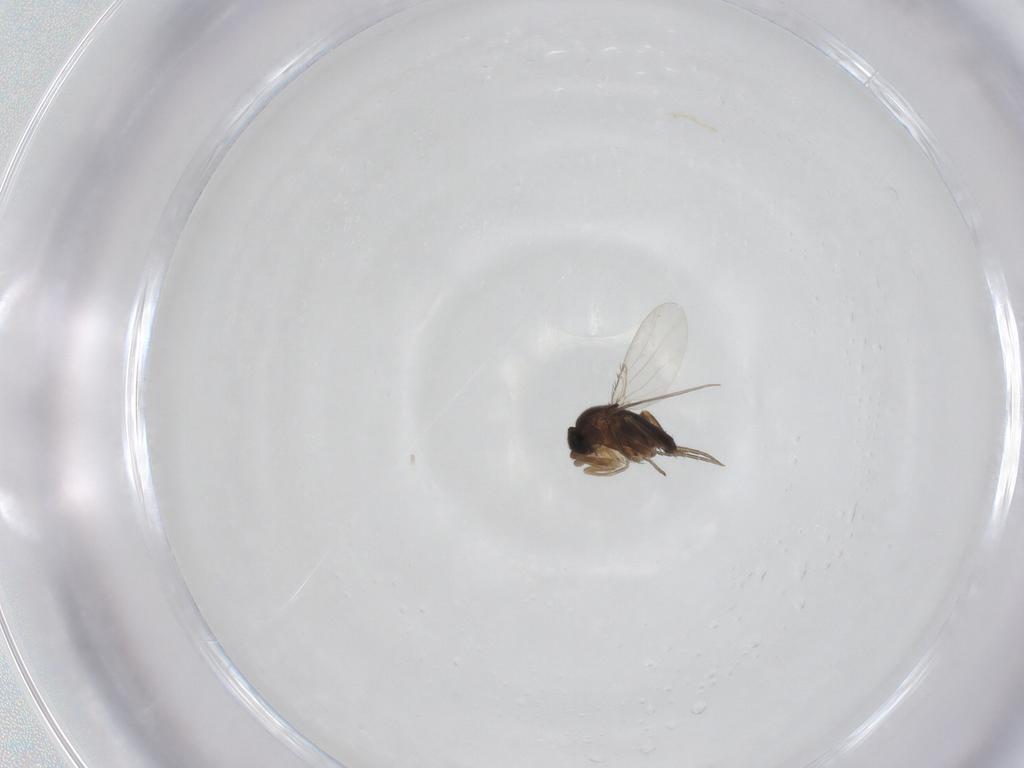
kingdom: Animalia
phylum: Arthropoda
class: Insecta
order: Diptera
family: Phoridae
